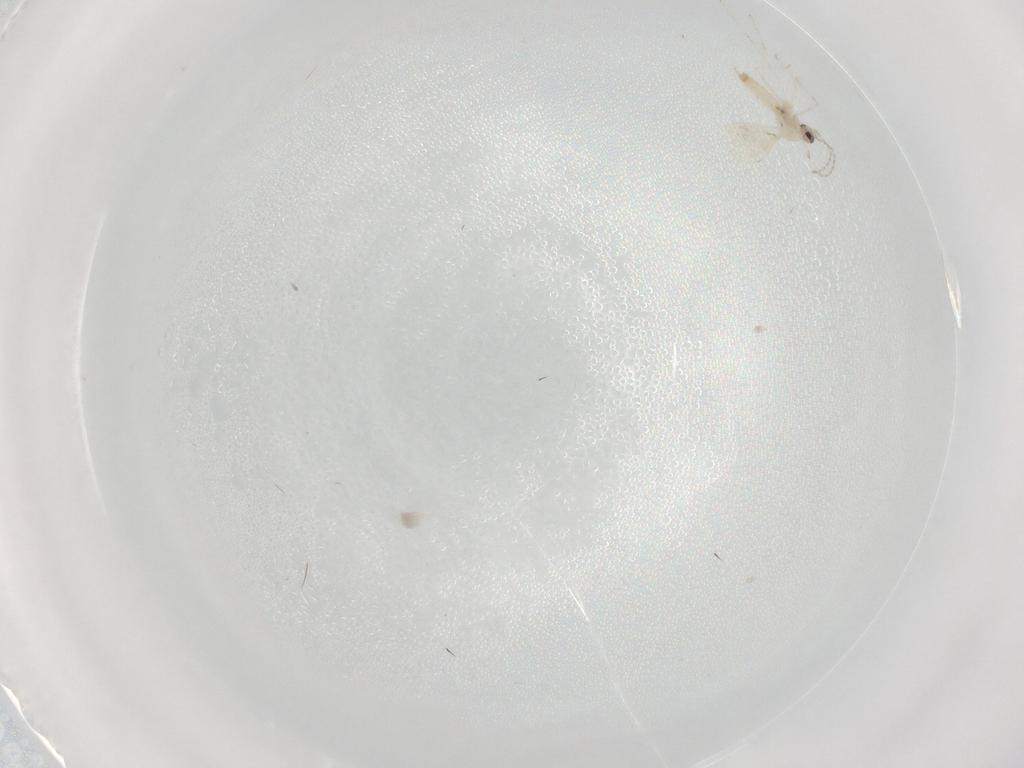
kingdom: Animalia
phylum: Arthropoda
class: Insecta
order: Diptera
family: Cecidomyiidae
